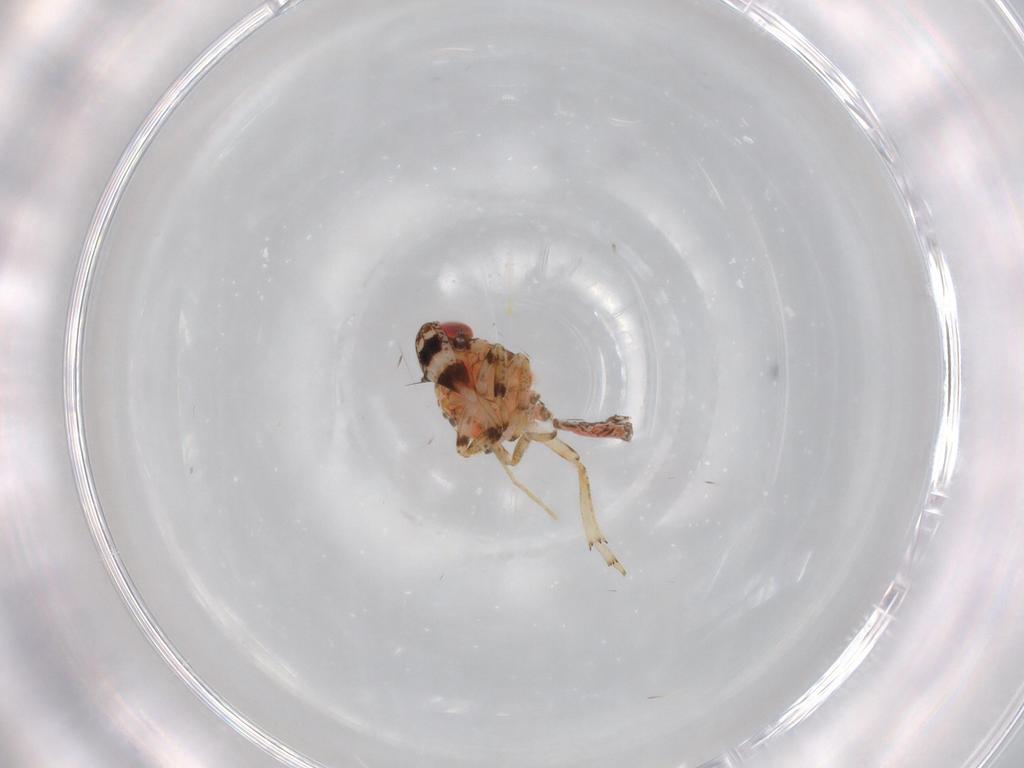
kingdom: Animalia
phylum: Arthropoda
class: Insecta
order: Hemiptera
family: Issidae
